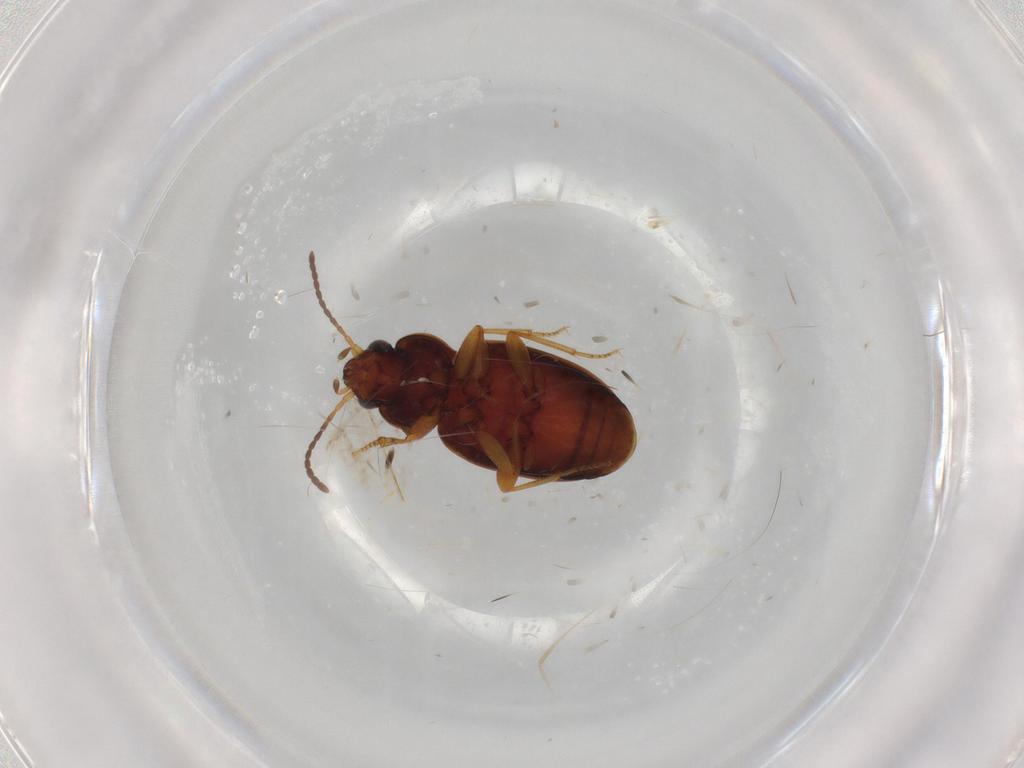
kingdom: Animalia
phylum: Arthropoda
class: Insecta
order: Coleoptera
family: Carabidae
